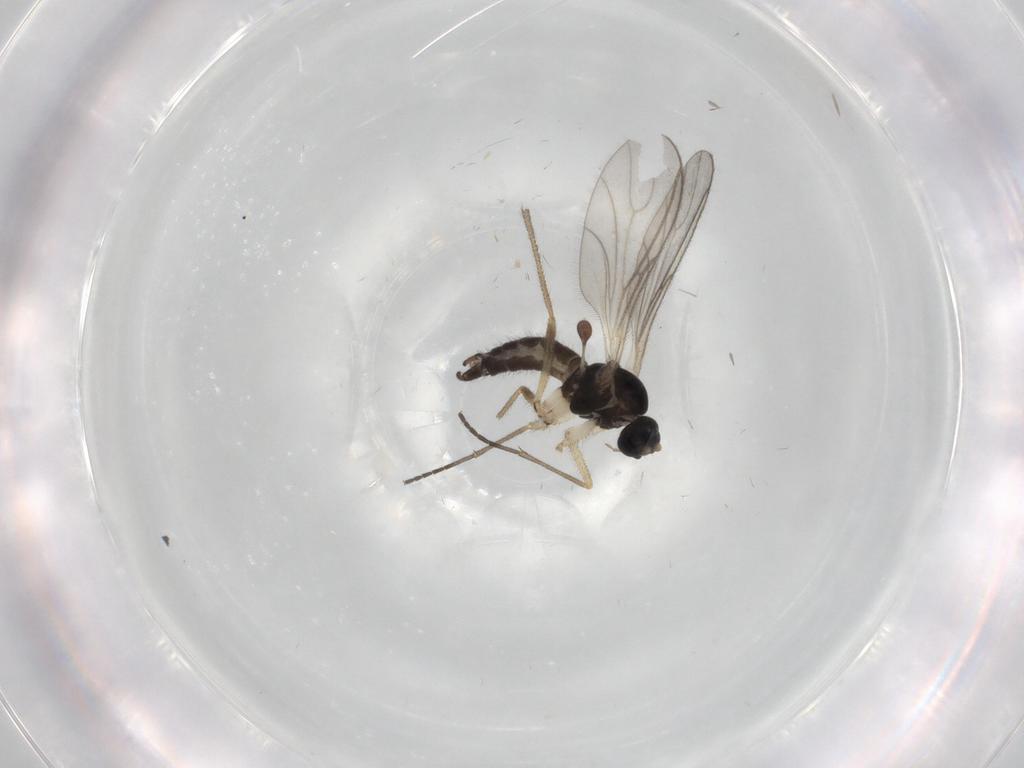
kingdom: Animalia
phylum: Arthropoda
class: Insecta
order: Diptera
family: Sciaridae
